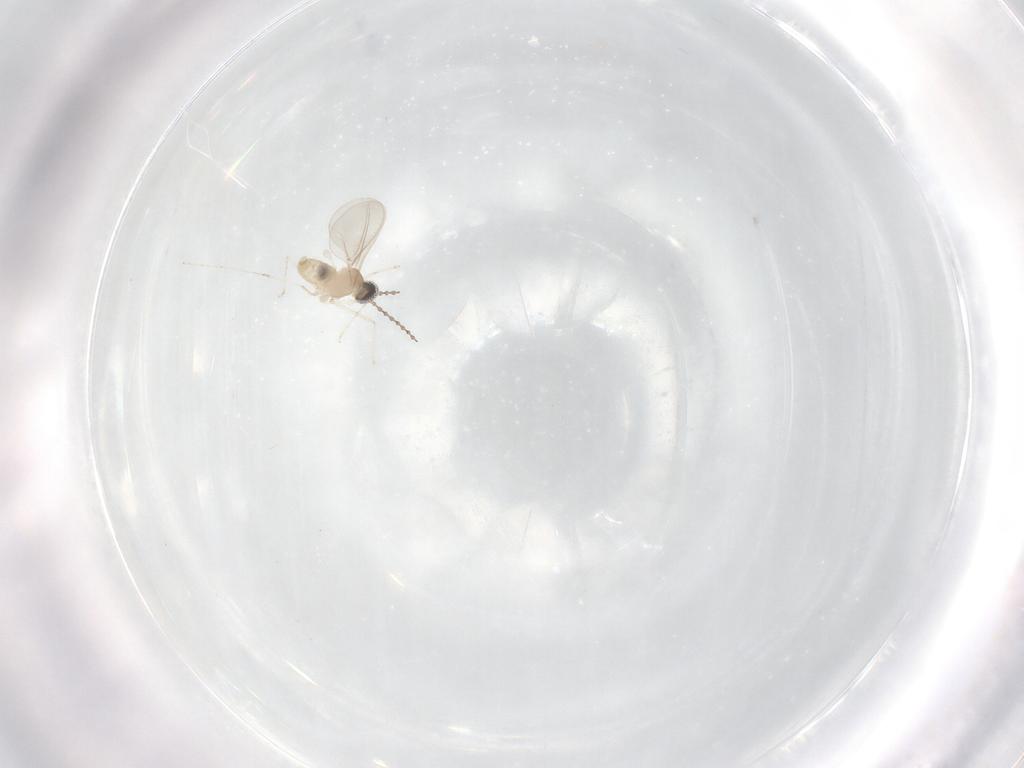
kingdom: Animalia
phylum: Arthropoda
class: Insecta
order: Diptera
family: Cecidomyiidae
